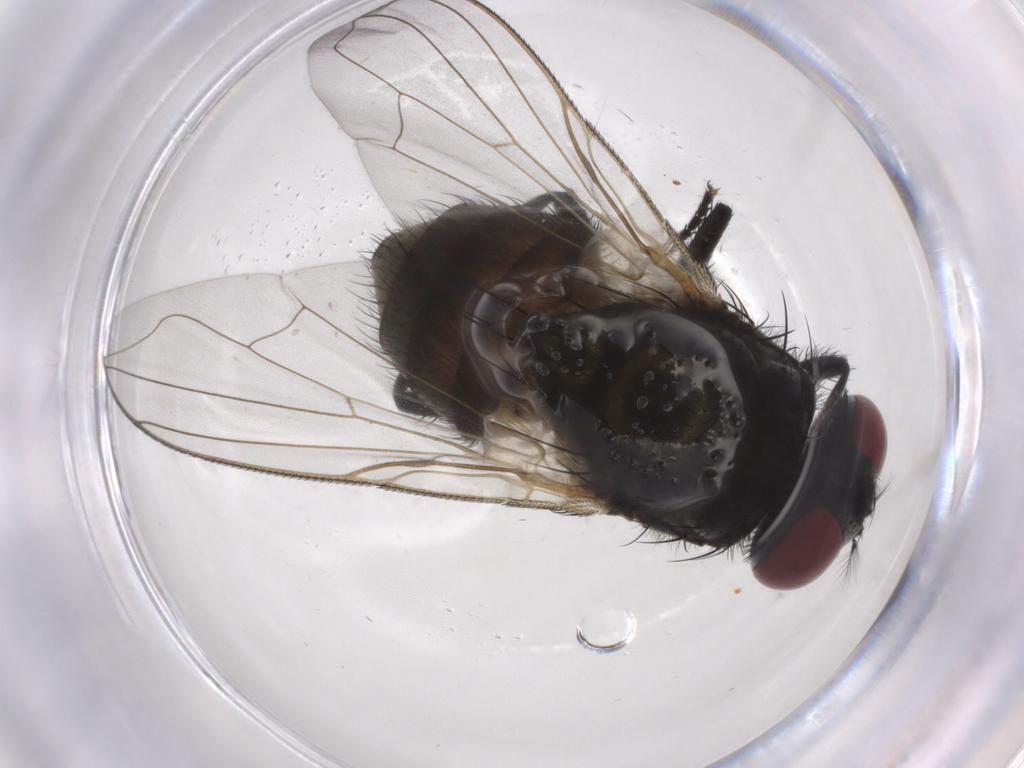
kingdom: Animalia
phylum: Arthropoda
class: Insecta
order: Diptera
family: Muscidae
